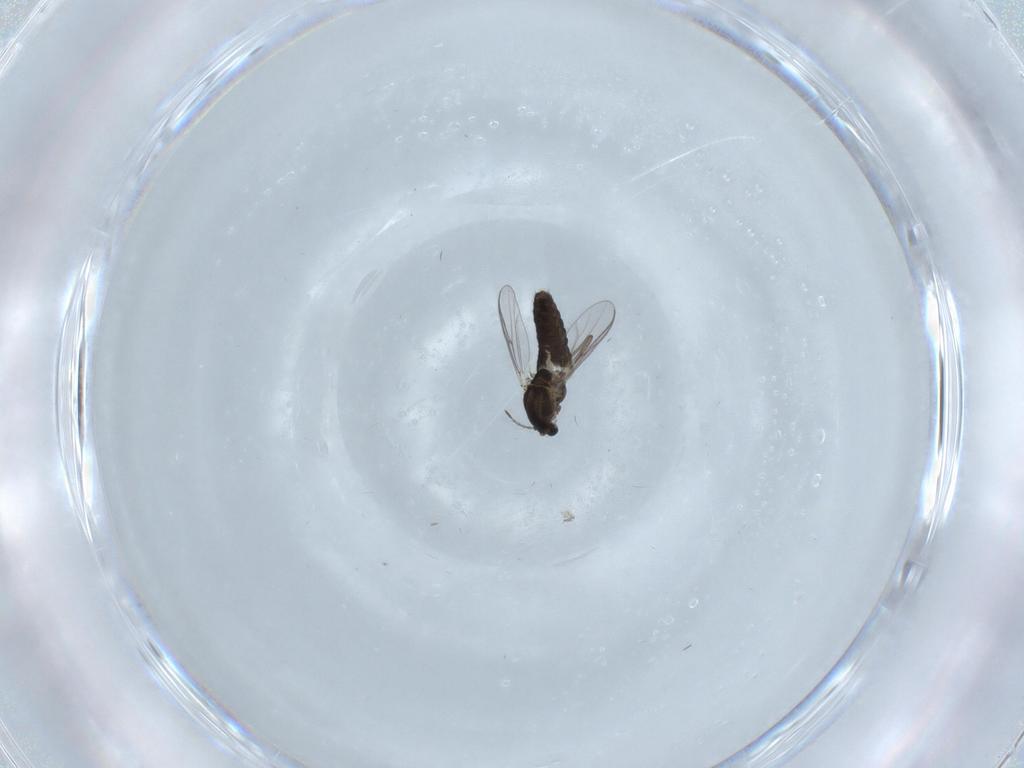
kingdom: Animalia
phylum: Arthropoda
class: Insecta
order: Diptera
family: Chironomidae
